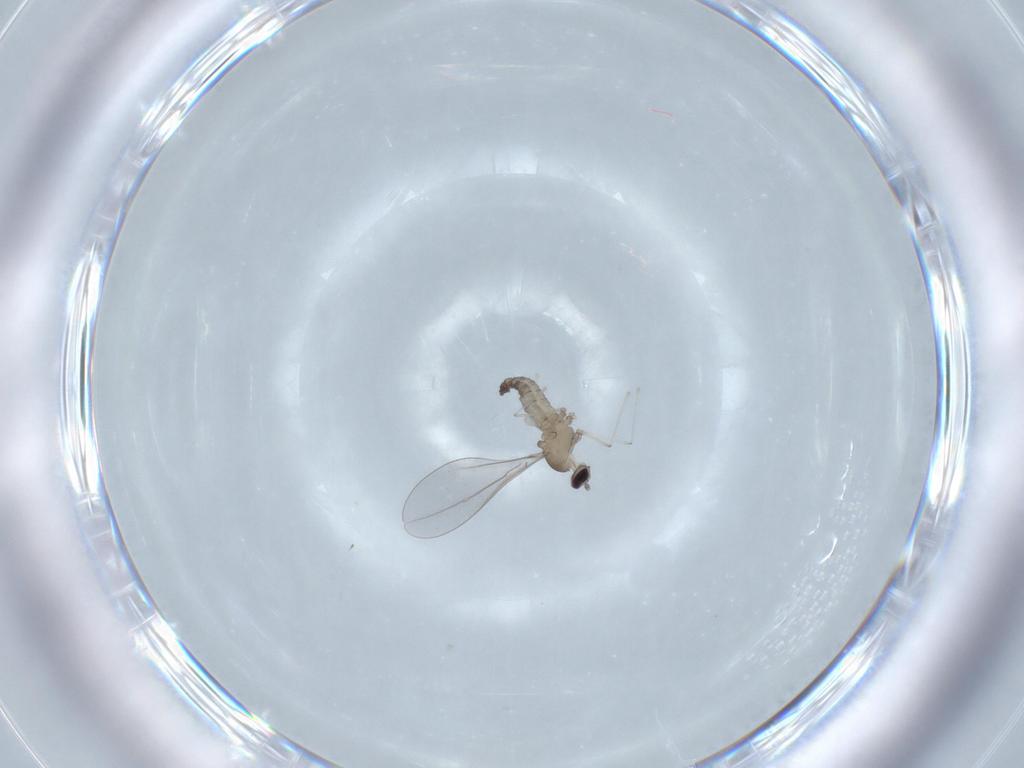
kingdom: Animalia
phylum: Arthropoda
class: Insecta
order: Diptera
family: Cecidomyiidae
